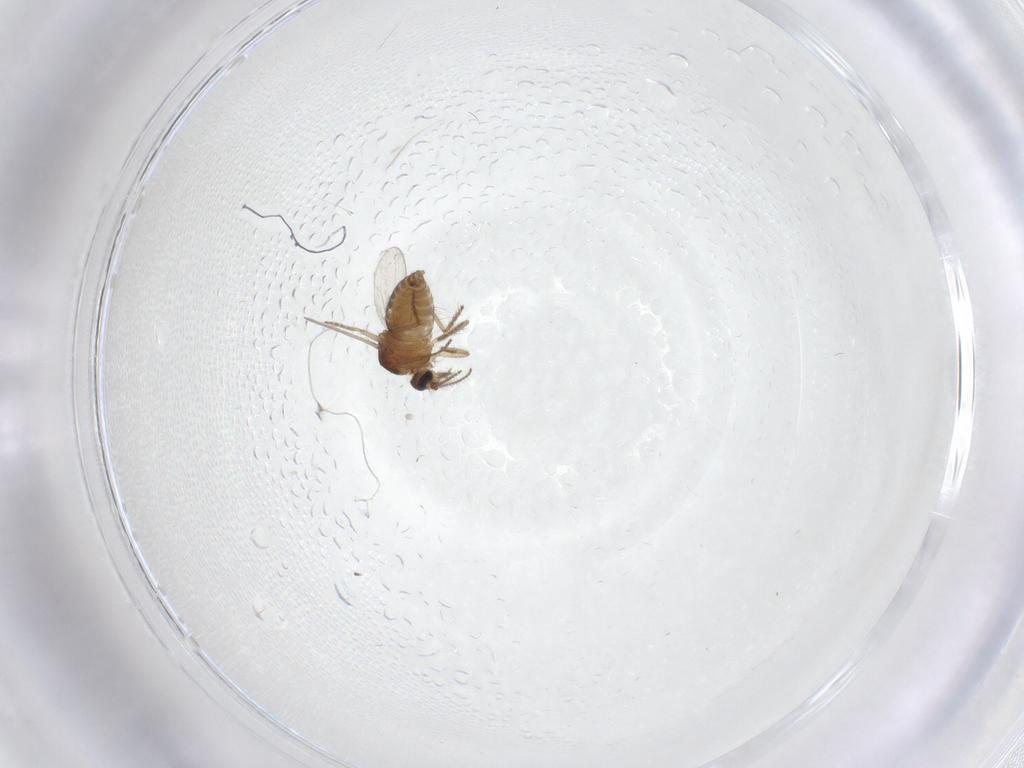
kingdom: Animalia
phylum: Arthropoda
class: Insecta
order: Diptera
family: Ceratopogonidae
